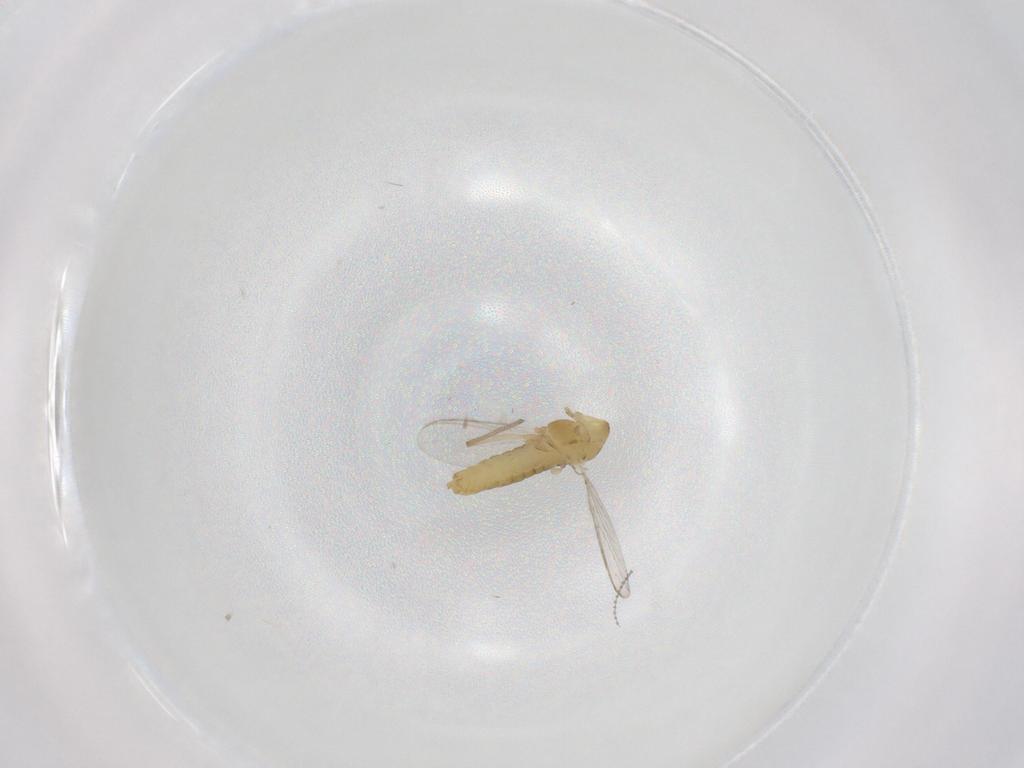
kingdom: Animalia
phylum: Arthropoda
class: Insecta
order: Diptera
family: Chironomidae
